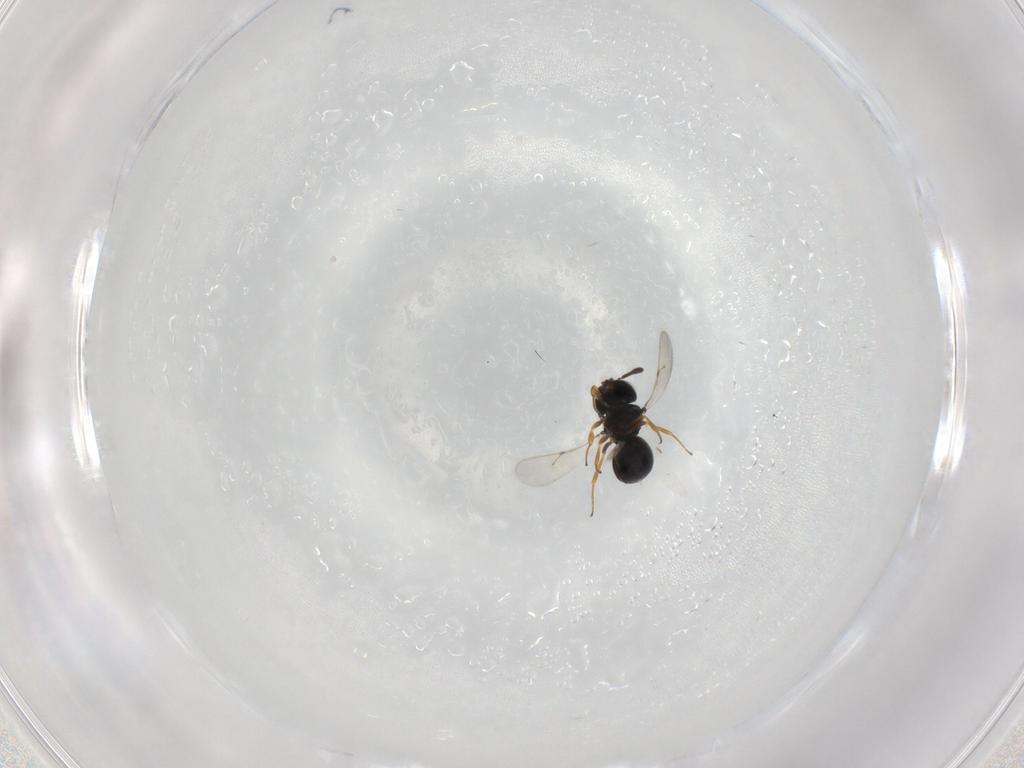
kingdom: Animalia
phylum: Arthropoda
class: Insecta
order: Hymenoptera
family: Scelionidae
